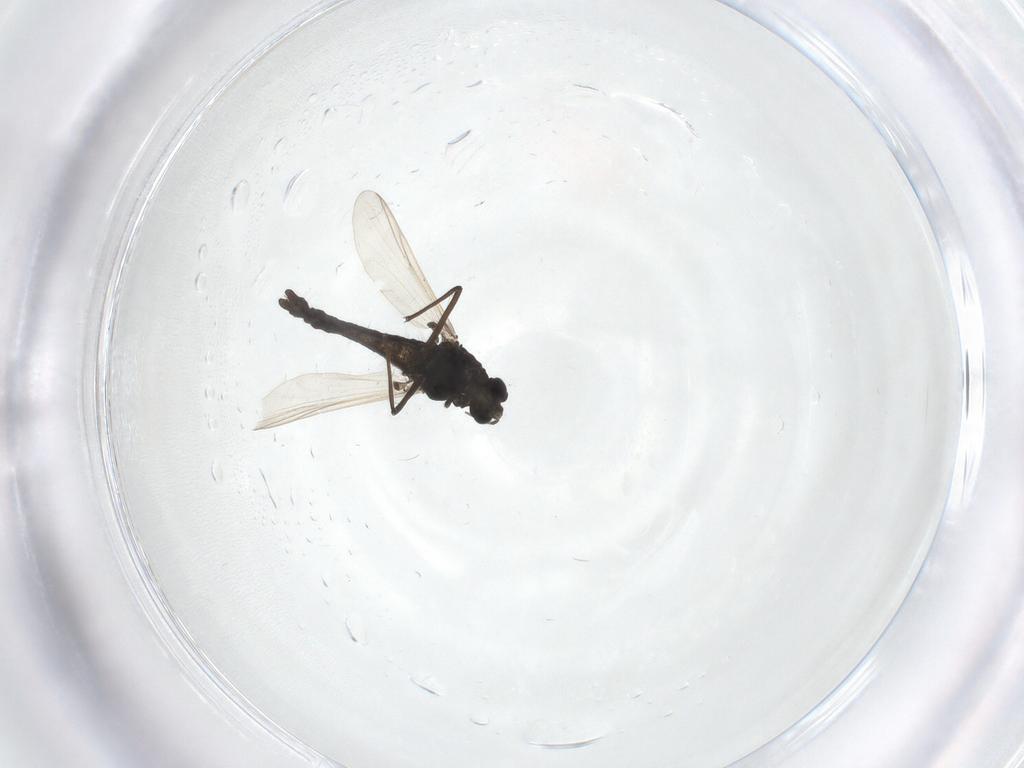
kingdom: Animalia
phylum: Arthropoda
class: Insecta
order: Diptera
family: Chironomidae
